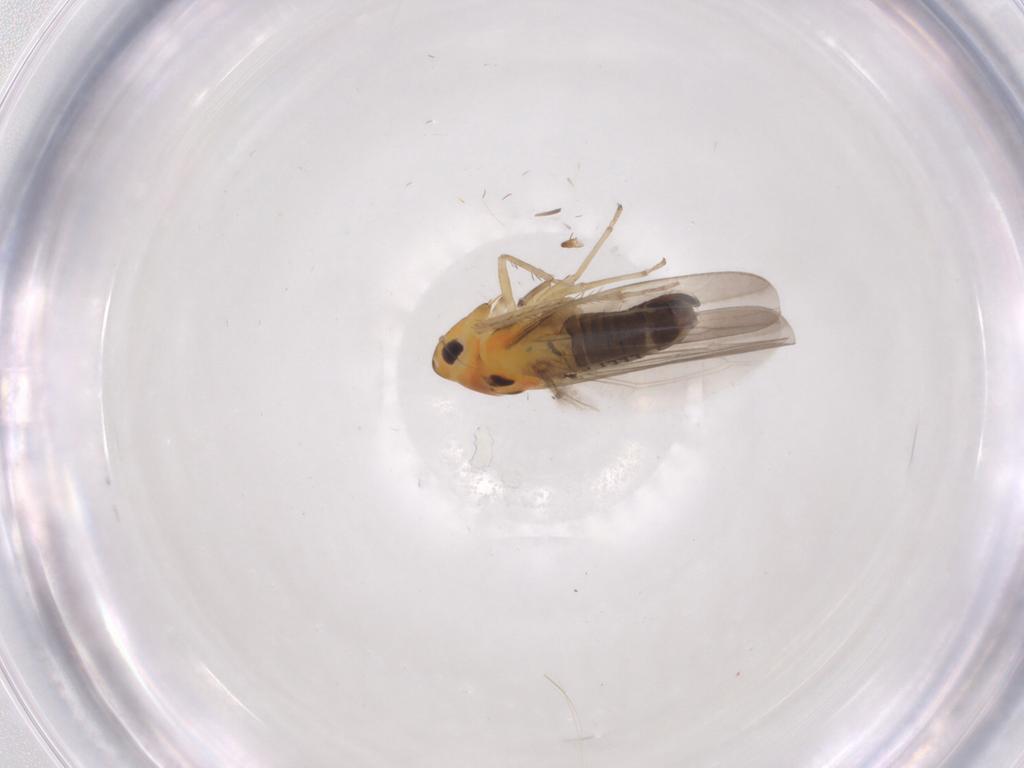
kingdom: Animalia
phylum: Arthropoda
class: Insecta
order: Hemiptera
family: Cicadellidae
